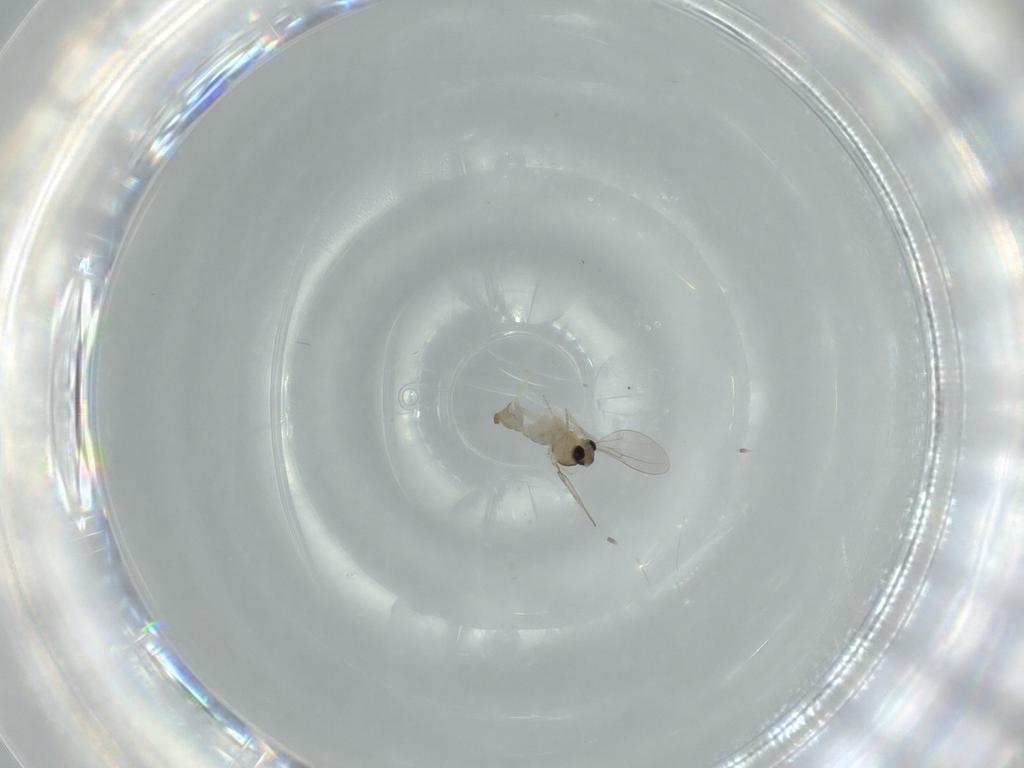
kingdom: Animalia
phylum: Arthropoda
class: Insecta
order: Diptera
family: Cecidomyiidae
